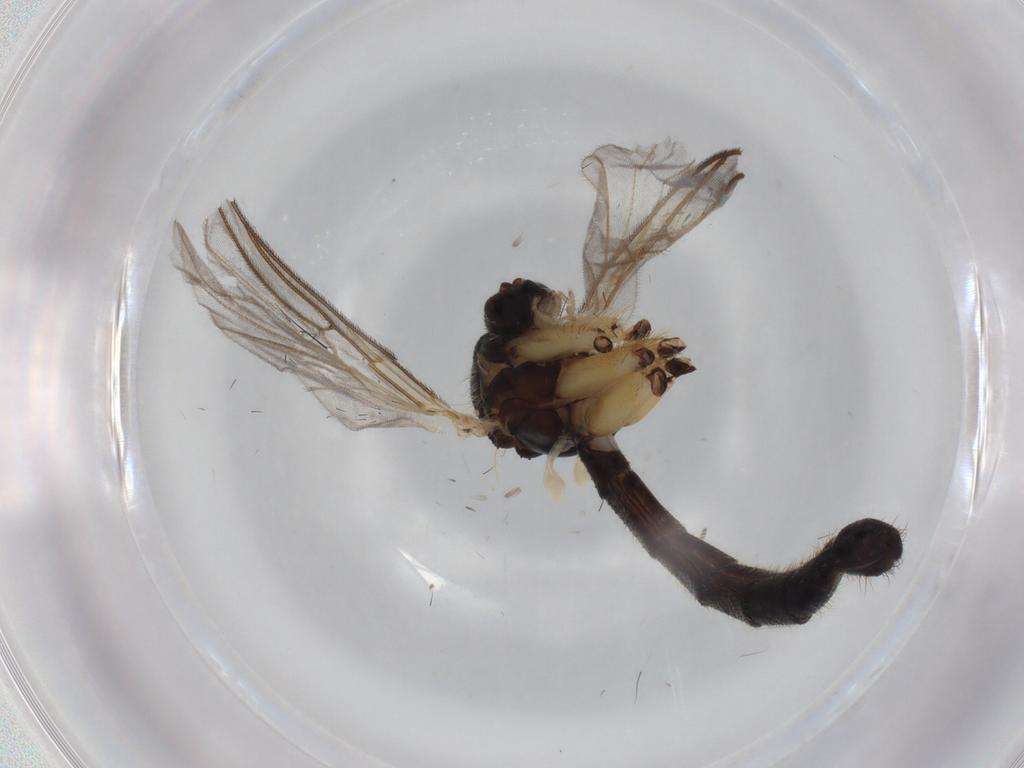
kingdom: Animalia
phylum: Arthropoda
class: Insecta
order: Diptera
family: Mycetophilidae
